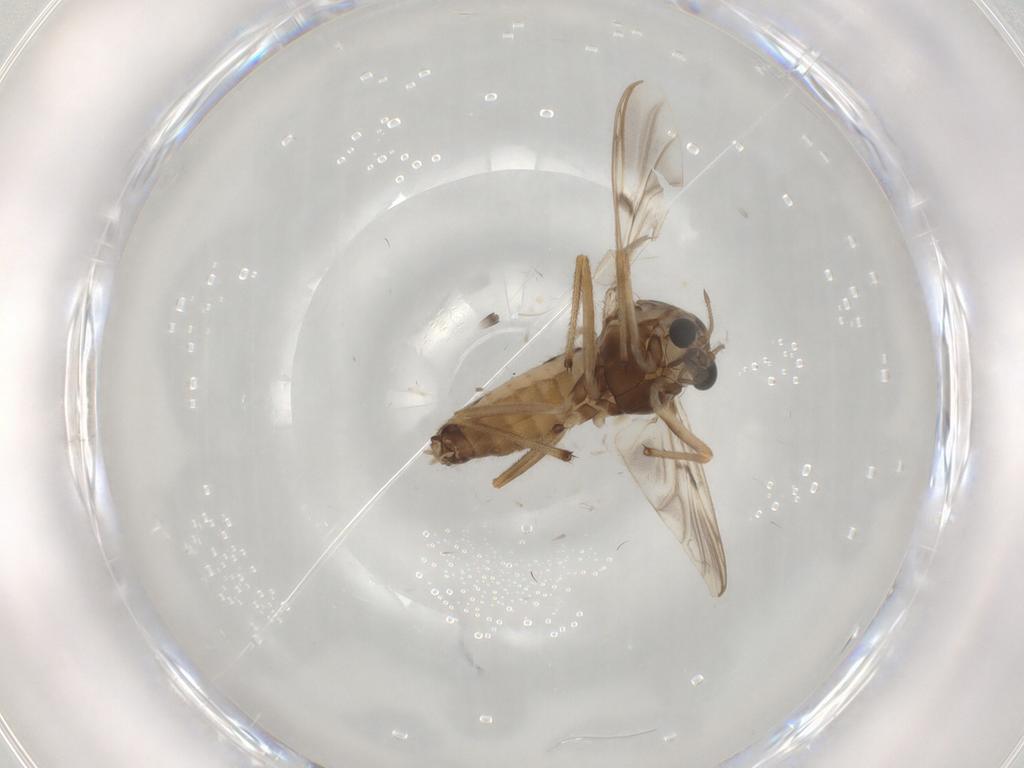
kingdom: Animalia
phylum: Arthropoda
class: Insecta
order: Diptera
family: Chironomidae
